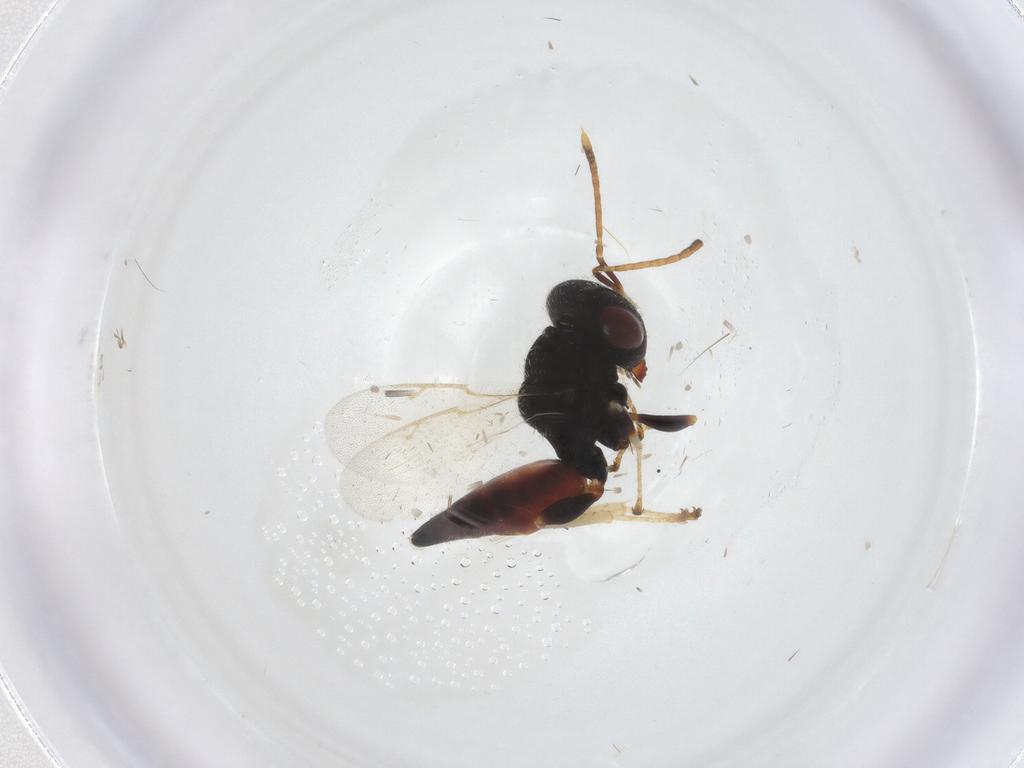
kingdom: Animalia
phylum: Arthropoda
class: Insecta
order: Hymenoptera
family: Pteromalidae
